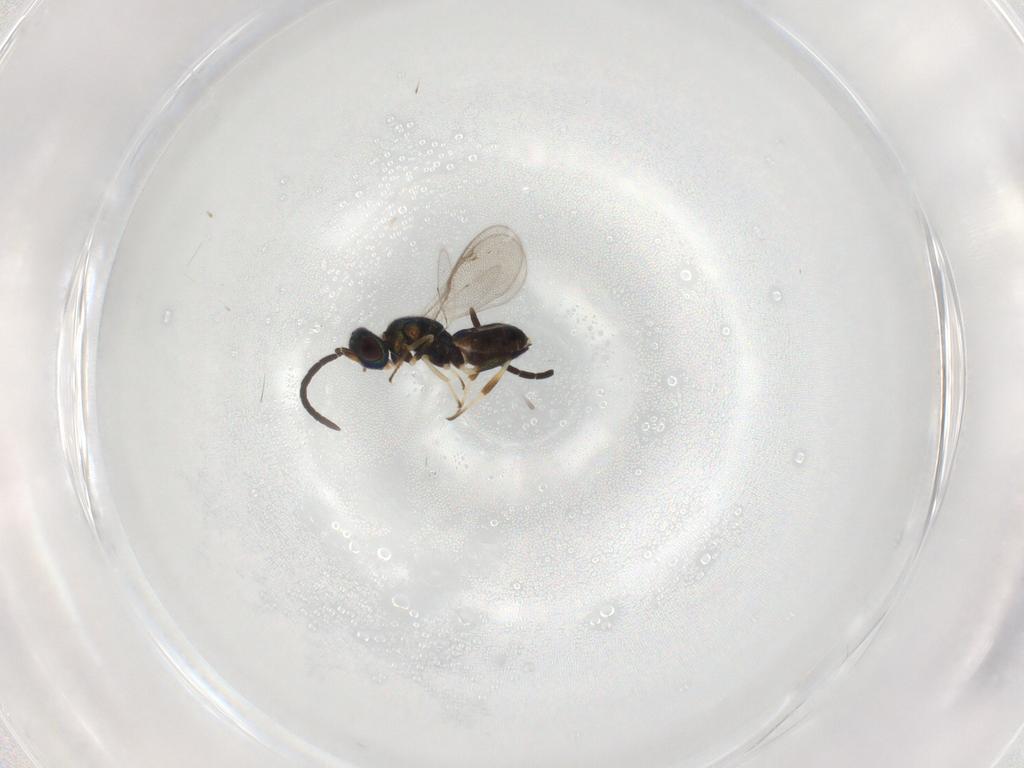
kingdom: Animalia
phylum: Arthropoda
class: Insecta
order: Hymenoptera
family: Eupelmidae
